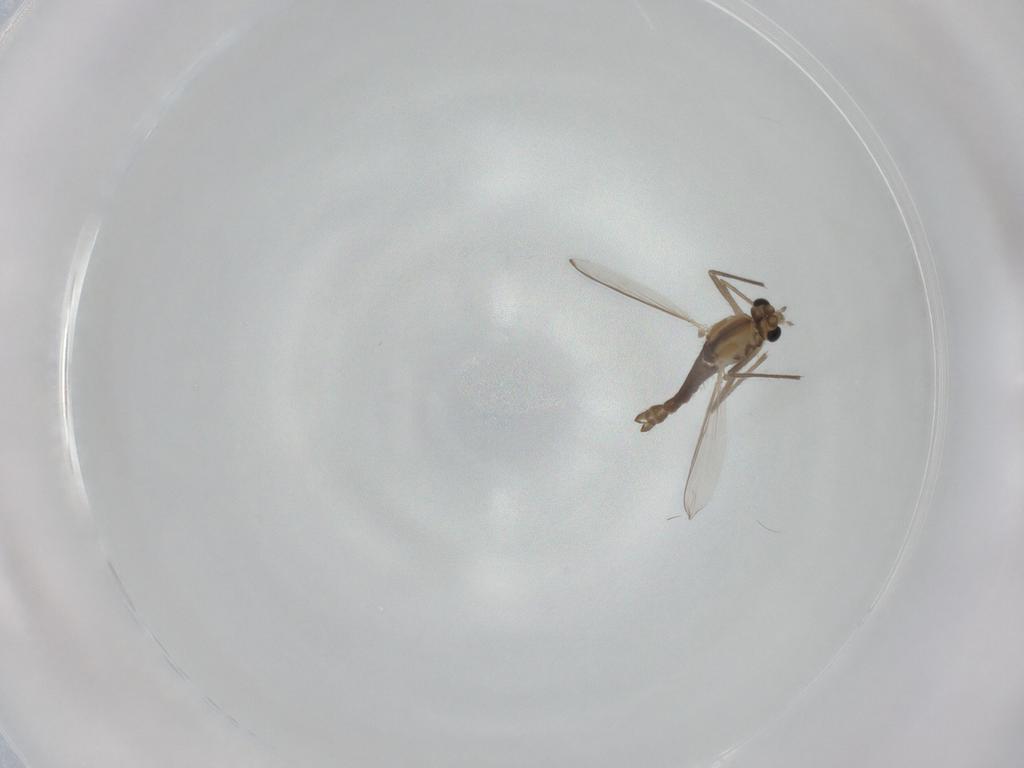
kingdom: Animalia
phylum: Arthropoda
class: Insecta
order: Diptera
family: Chironomidae
